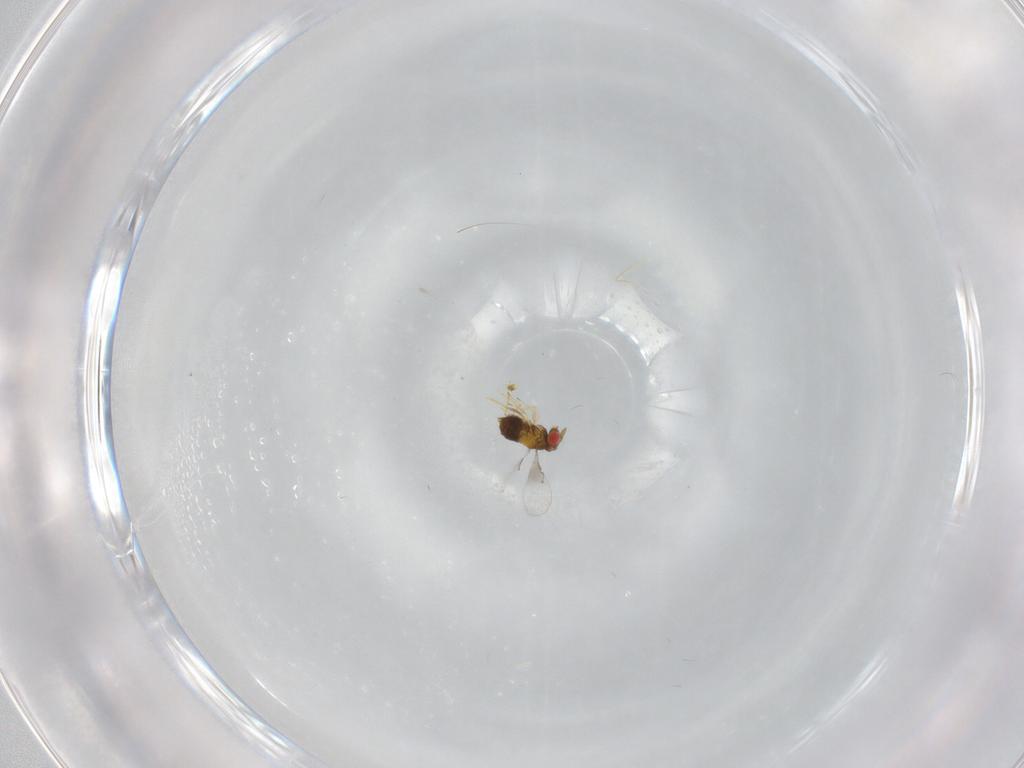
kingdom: Animalia
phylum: Arthropoda
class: Insecta
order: Hymenoptera
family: Trichogrammatidae
